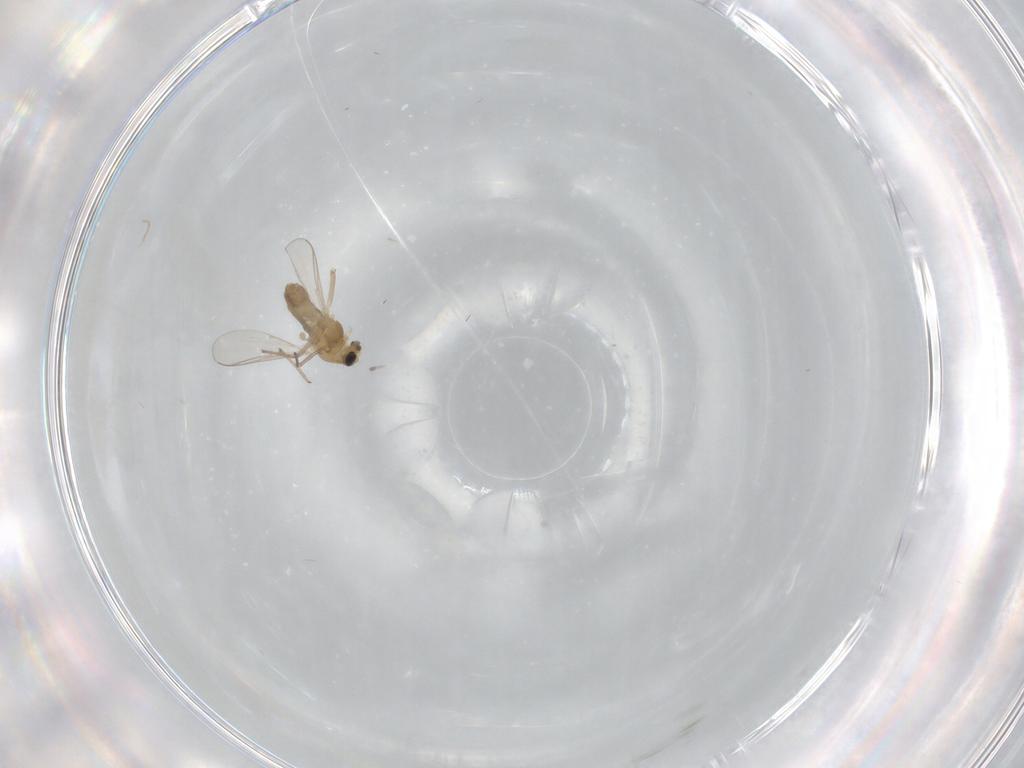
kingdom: Animalia
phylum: Arthropoda
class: Insecta
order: Diptera
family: Chironomidae
